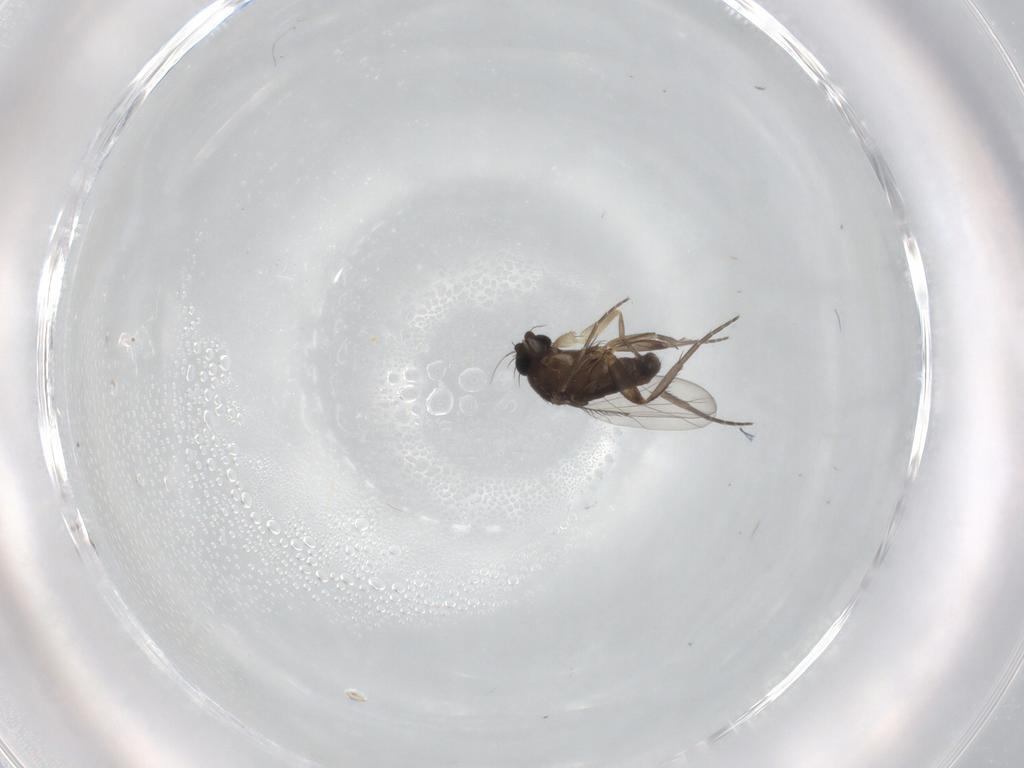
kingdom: Animalia
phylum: Arthropoda
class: Insecta
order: Diptera
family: Phoridae
